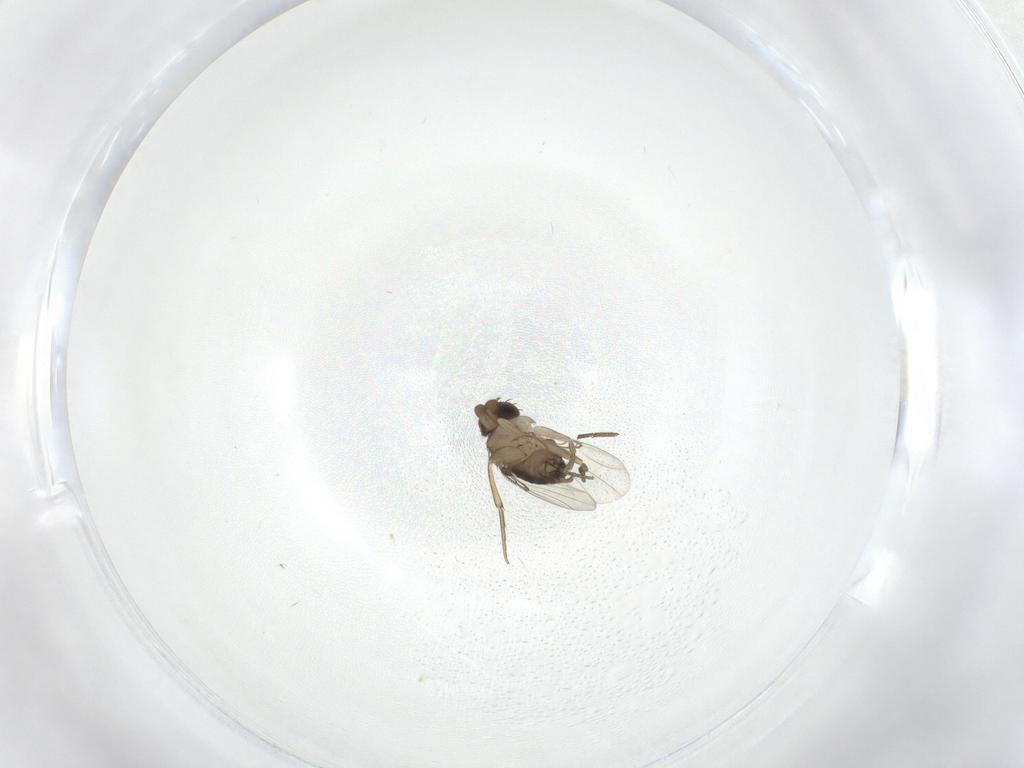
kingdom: Animalia
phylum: Arthropoda
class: Insecta
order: Diptera
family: Phoridae
